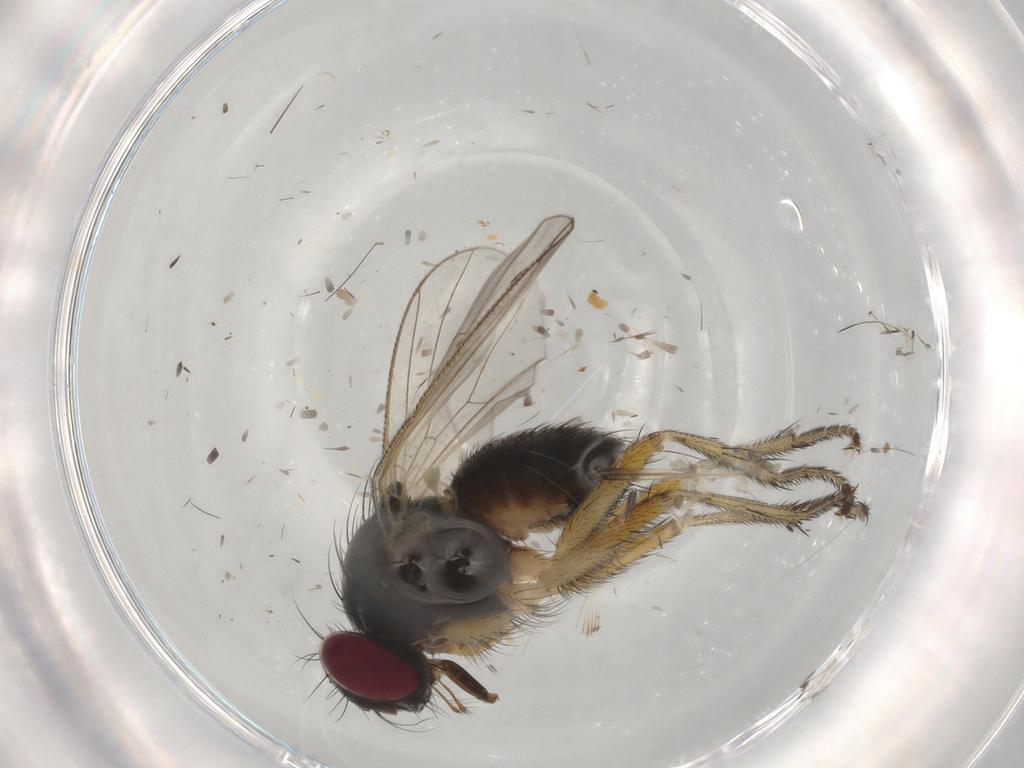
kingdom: Animalia
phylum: Arthropoda
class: Insecta
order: Diptera
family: Muscidae
